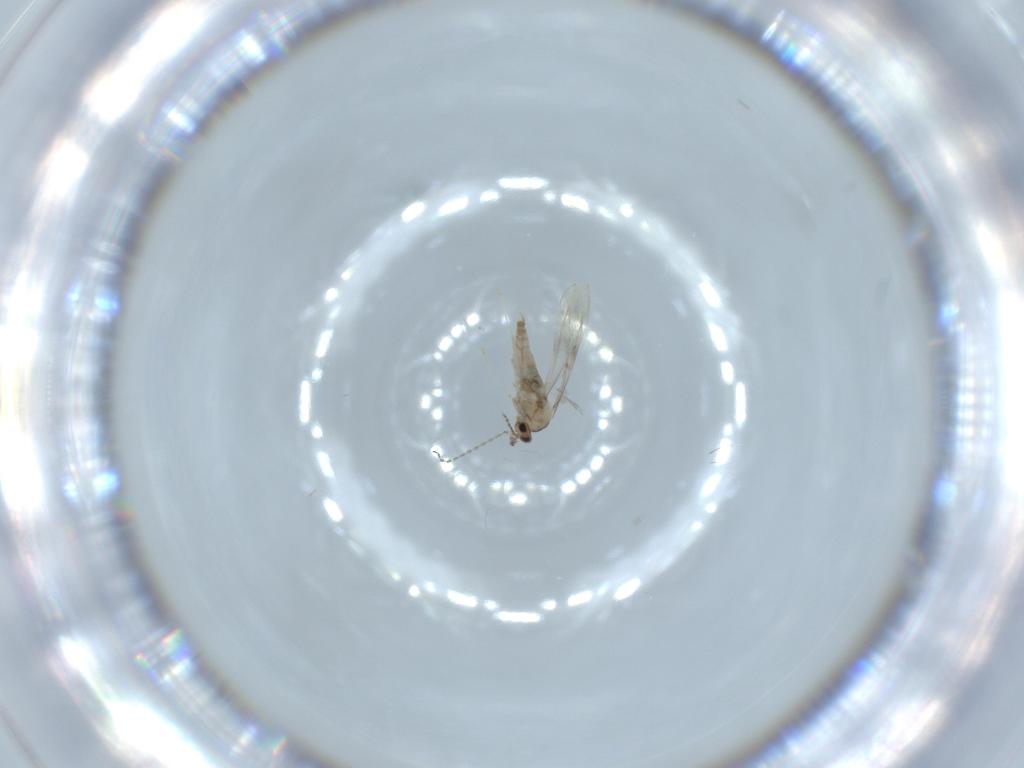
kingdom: Animalia
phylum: Arthropoda
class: Insecta
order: Diptera
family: Cecidomyiidae
